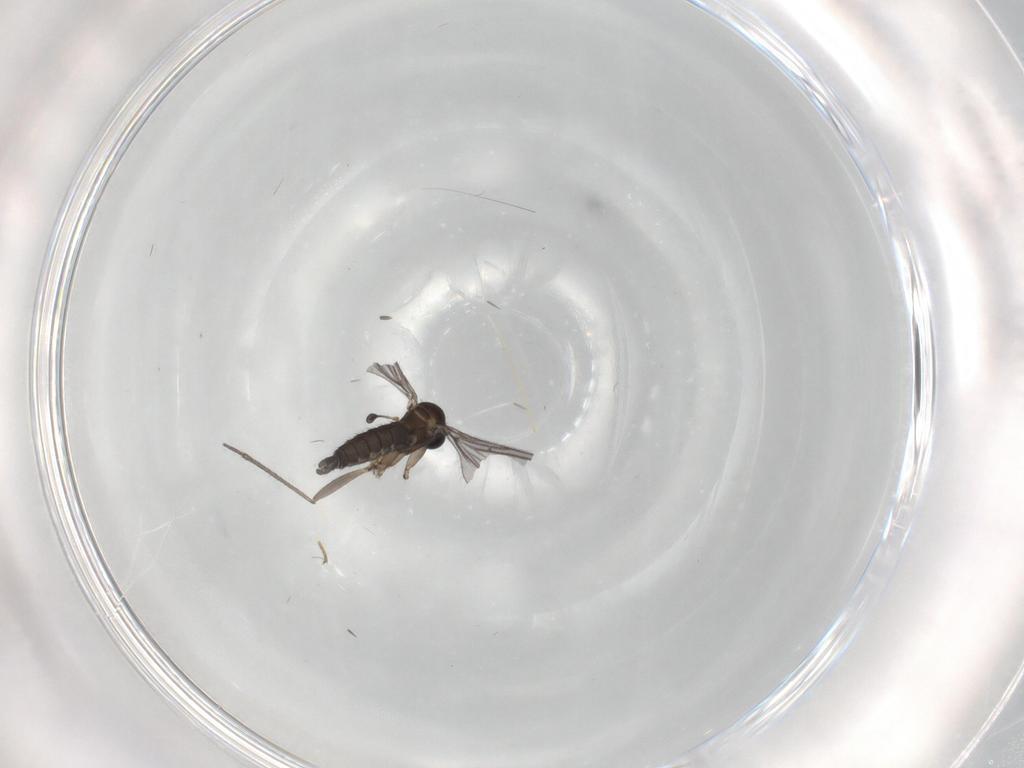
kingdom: Animalia
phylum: Arthropoda
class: Insecta
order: Diptera
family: Sciaridae
